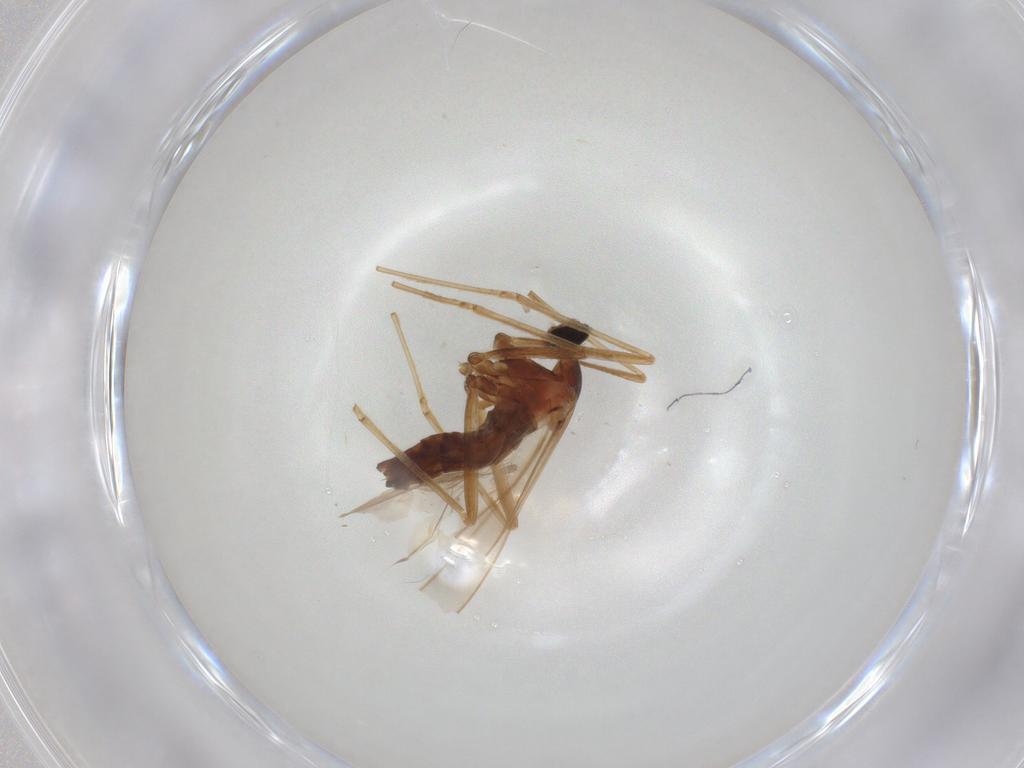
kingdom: Animalia
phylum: Arthropoda
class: Insecta
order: Diptera
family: Cecidomyiidae
